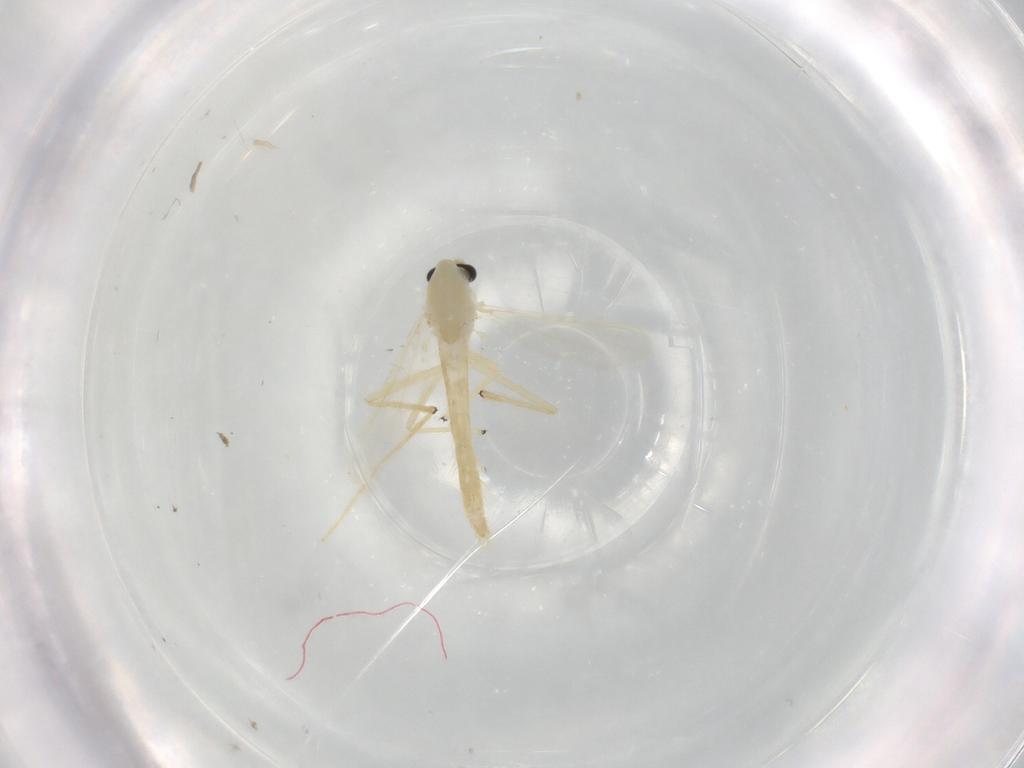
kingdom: Animalia
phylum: Arthropoda
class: Insecta
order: Diptera
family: Chironomidae
